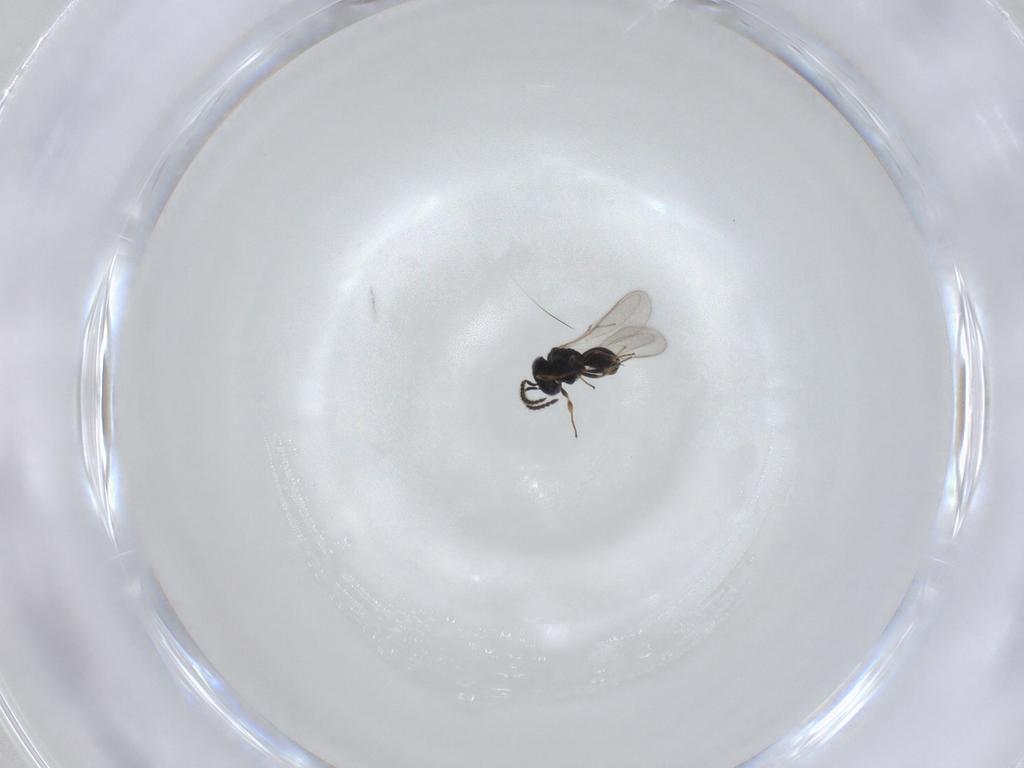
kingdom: Animalia
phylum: Arthropoda
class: Insecta
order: Hymenoptera
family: Scelionidae
